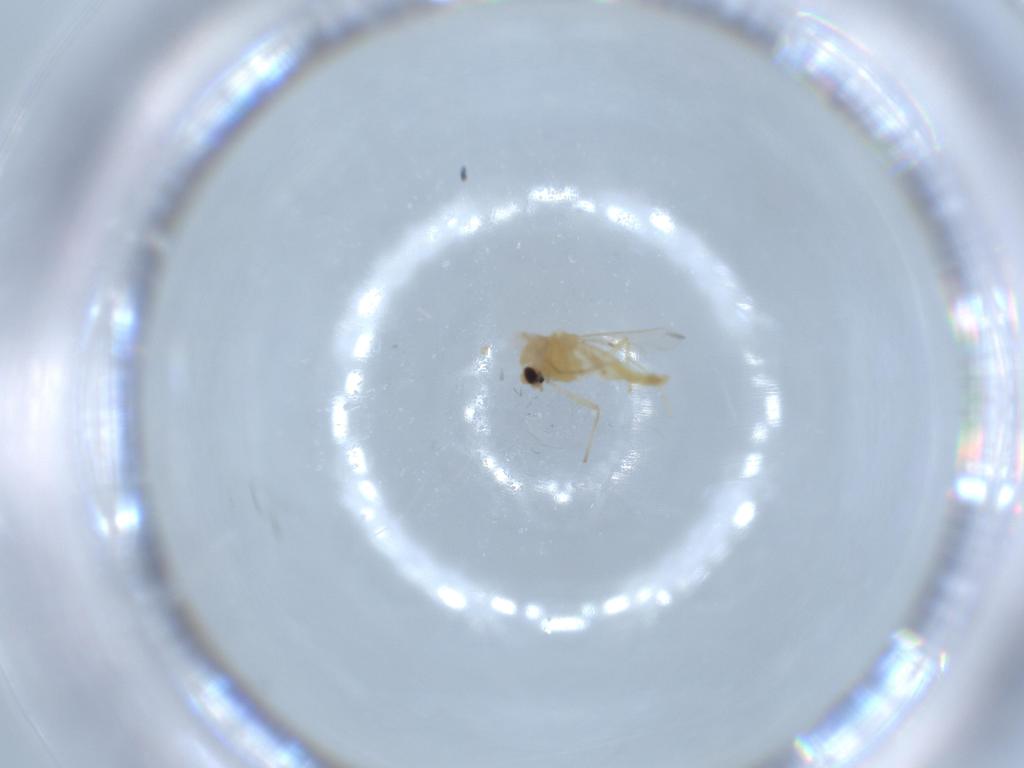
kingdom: Animalia
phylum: Arthropoda
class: Insecta
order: Diptera
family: Chironomidae
